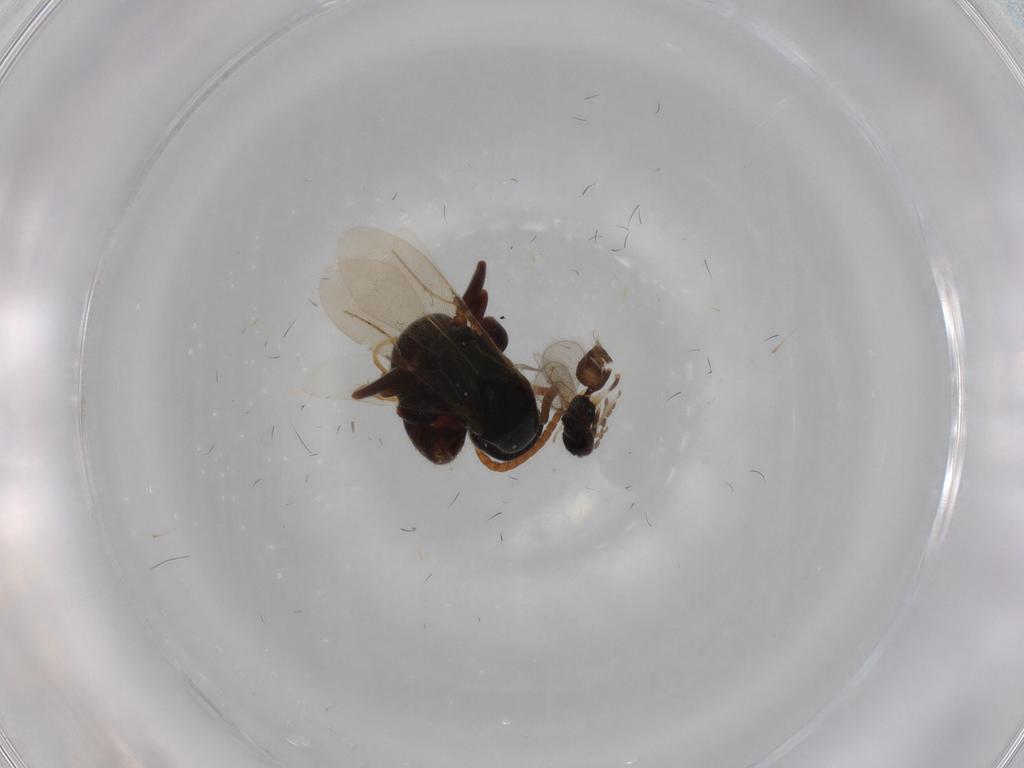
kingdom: Animalia
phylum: Arthropoda
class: Insecta
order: Hymenoptera
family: Bethylidae
